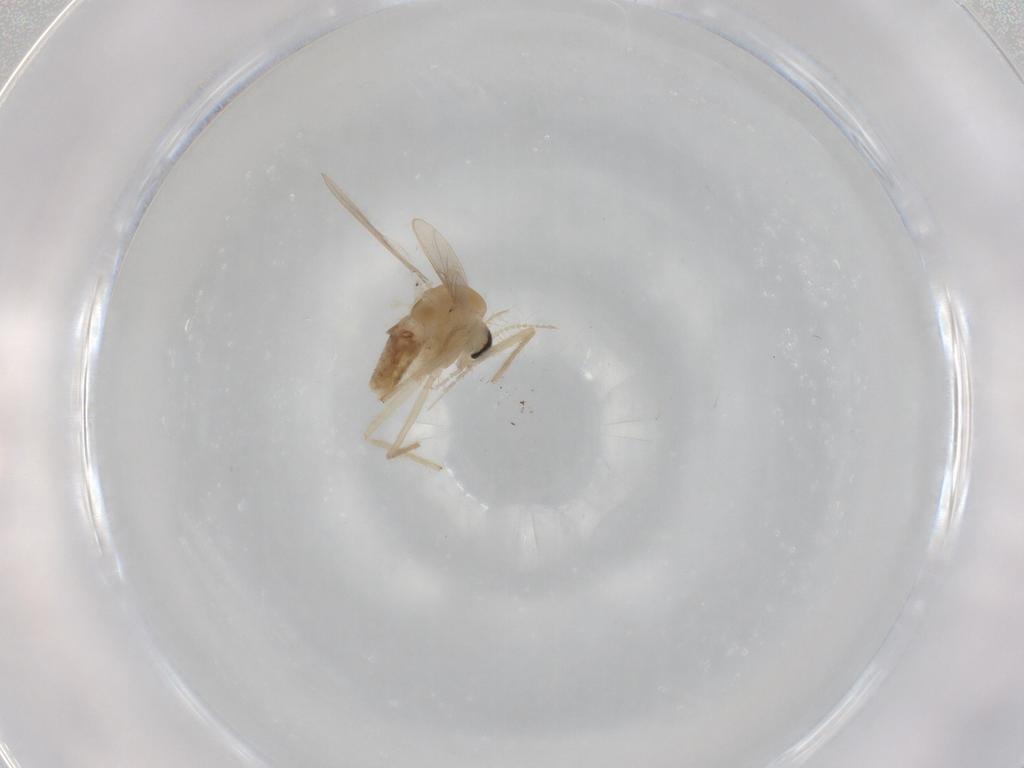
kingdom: Animalia
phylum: Arthropoda
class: Insecta
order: Diptera
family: Chironomidae
